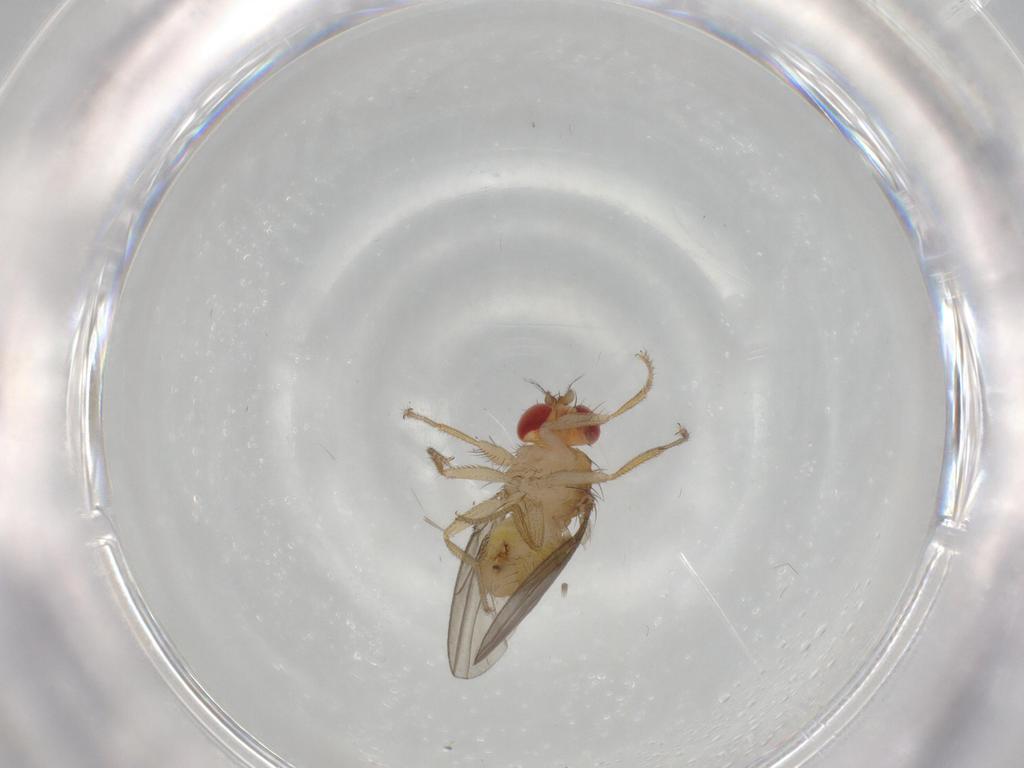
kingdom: Animalia
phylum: Arthropoda
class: Insecta
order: Diptera
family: Drosophilidae
